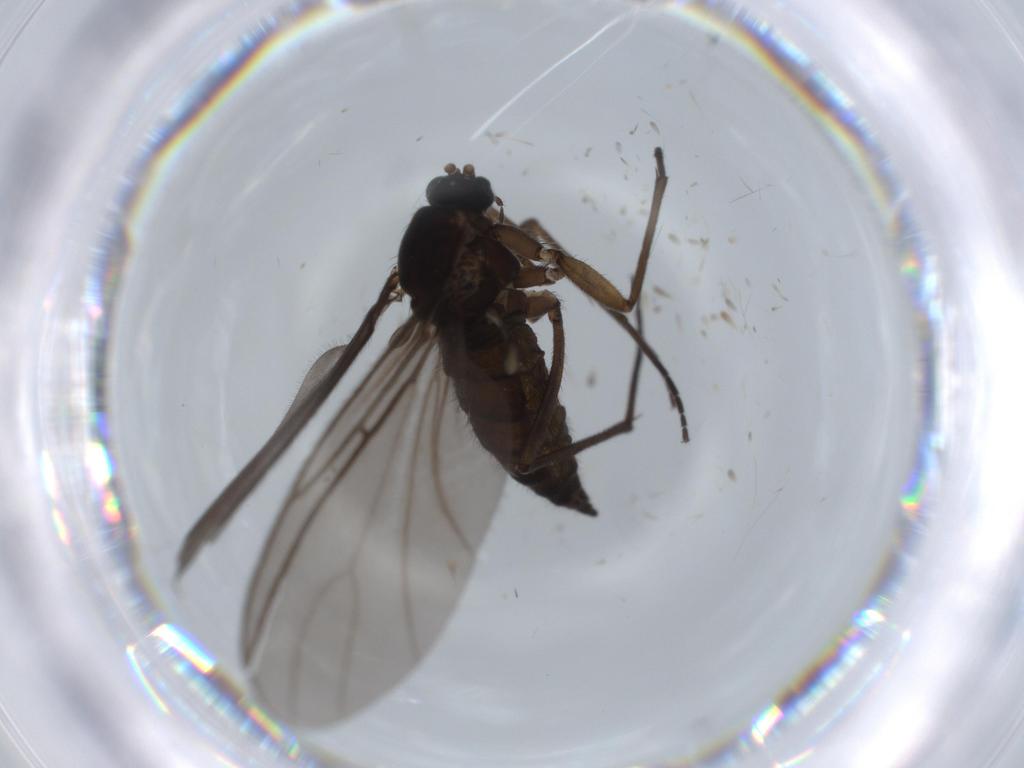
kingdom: Animalia
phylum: Arthropoda
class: Insecta
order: Diptera
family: Sciaridae
